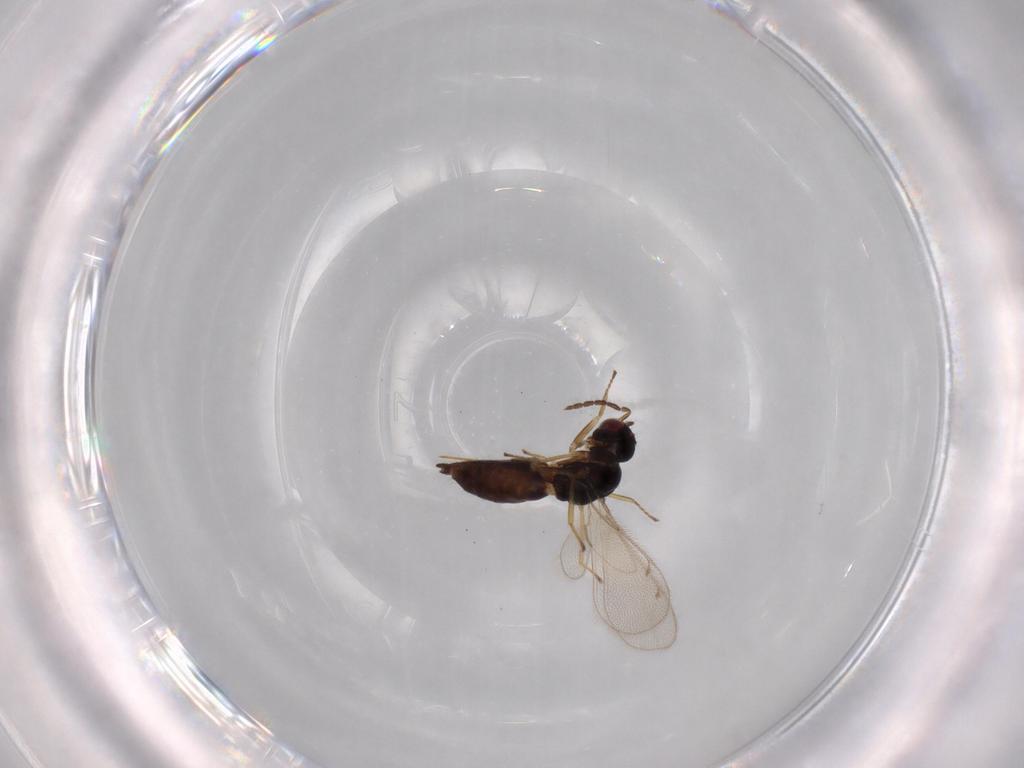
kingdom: Animalia
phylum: Arthropoda
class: Insecta
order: Hymenoptera
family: Eulophidae
